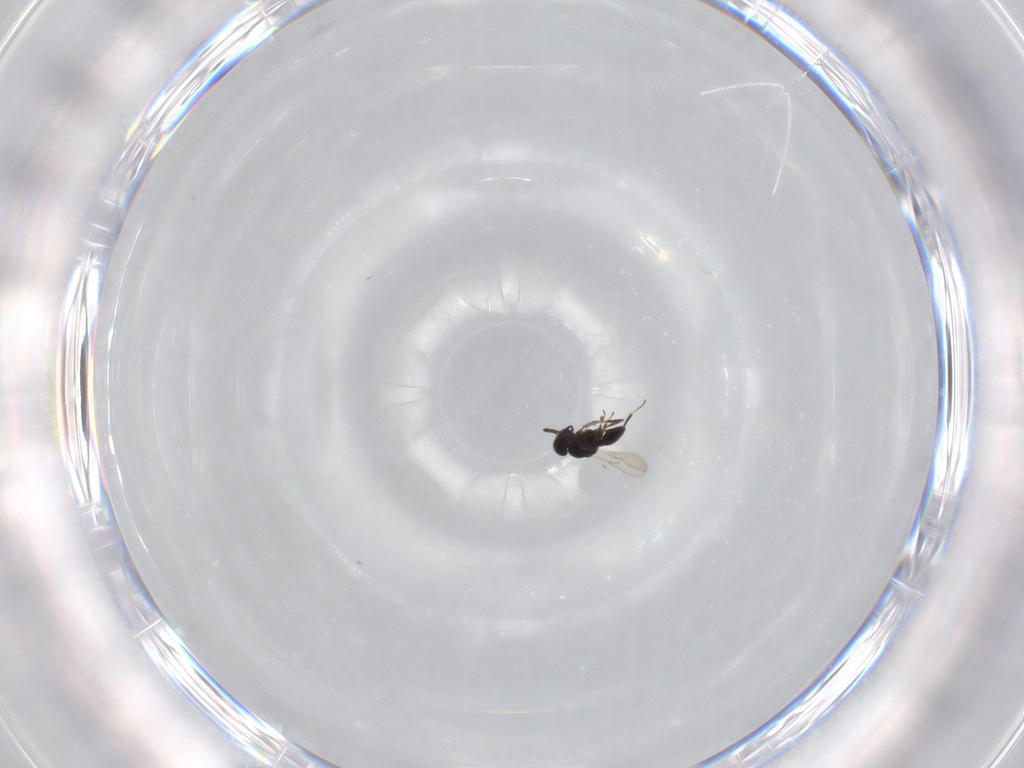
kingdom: Animalia
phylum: Arthropoda
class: Insecta
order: Hymenoptera
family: Scelionidae
